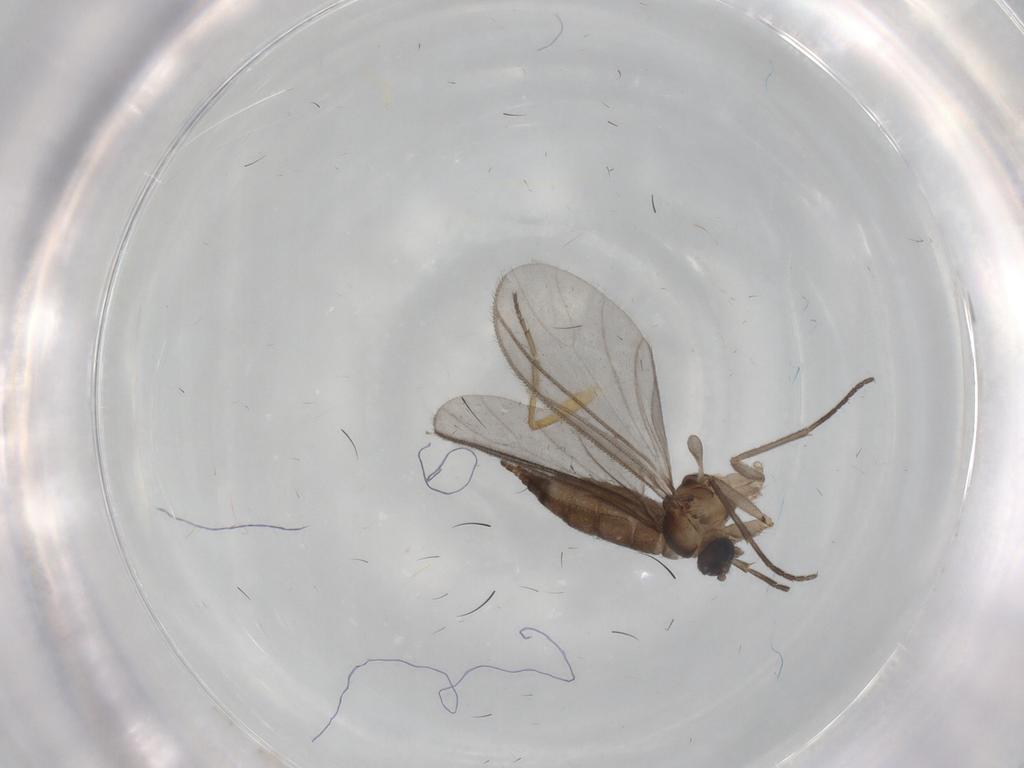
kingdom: Animalia
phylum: Arthropoda
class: Insecta
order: Diptera
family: Sciaridae
